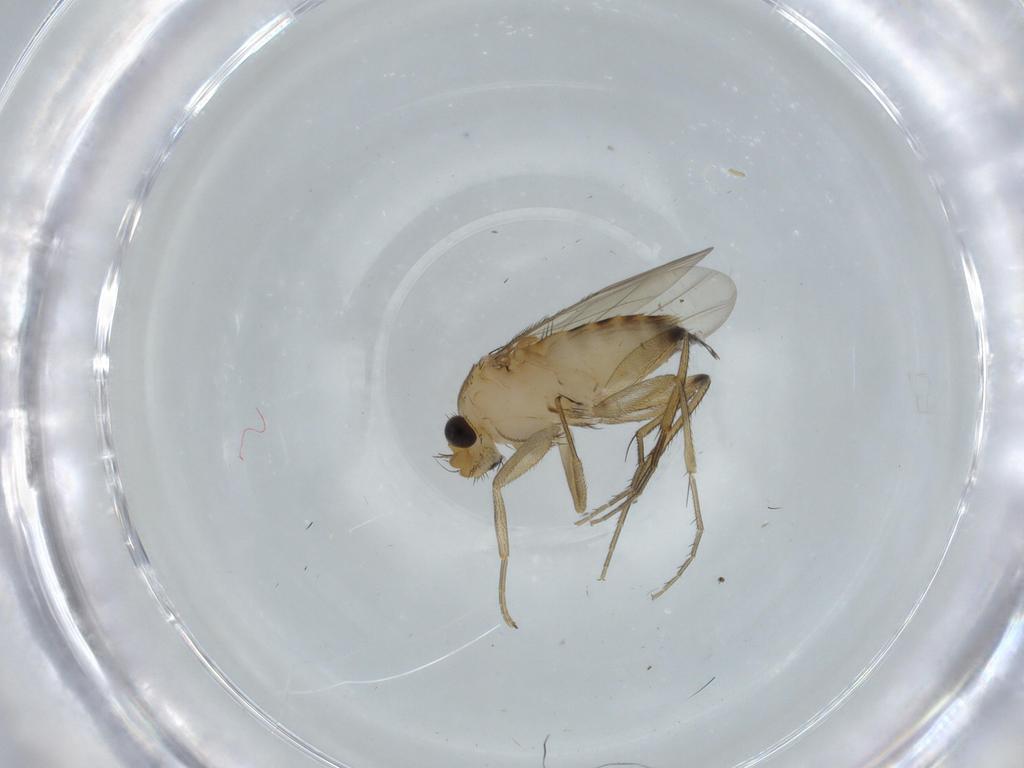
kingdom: Animalia
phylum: Arthropoda
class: Insecta
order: Diptera
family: Phoridae
